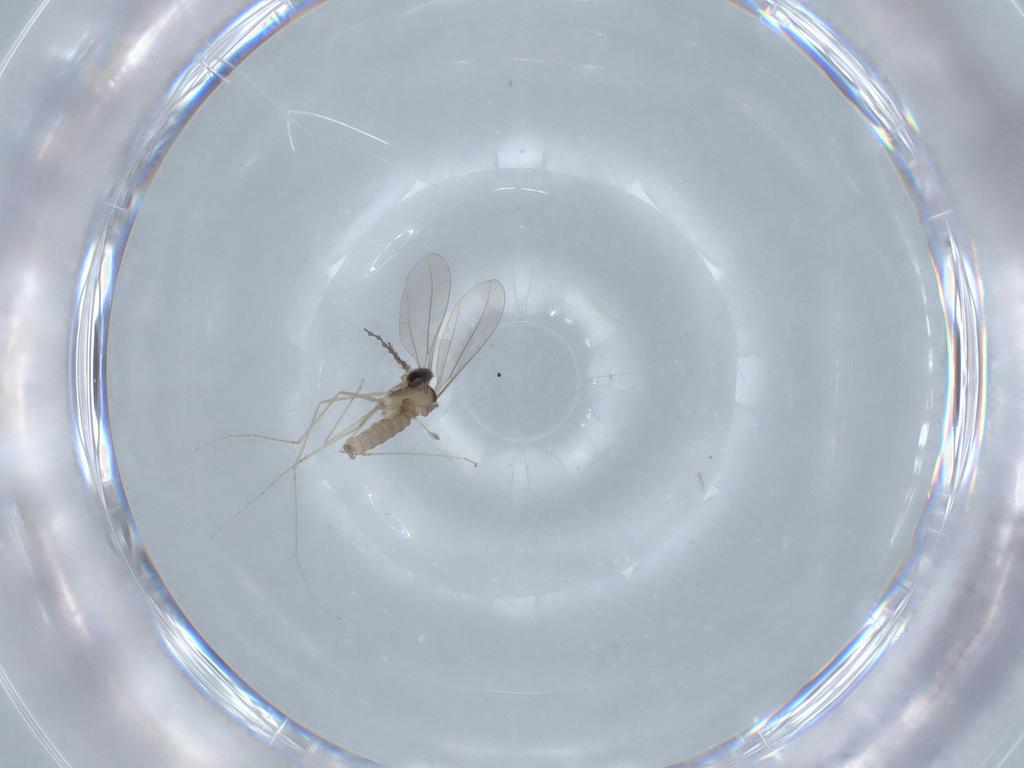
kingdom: Animalia
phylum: Arthropoda
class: Insecta
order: Diptera
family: Cecidomyiidae
